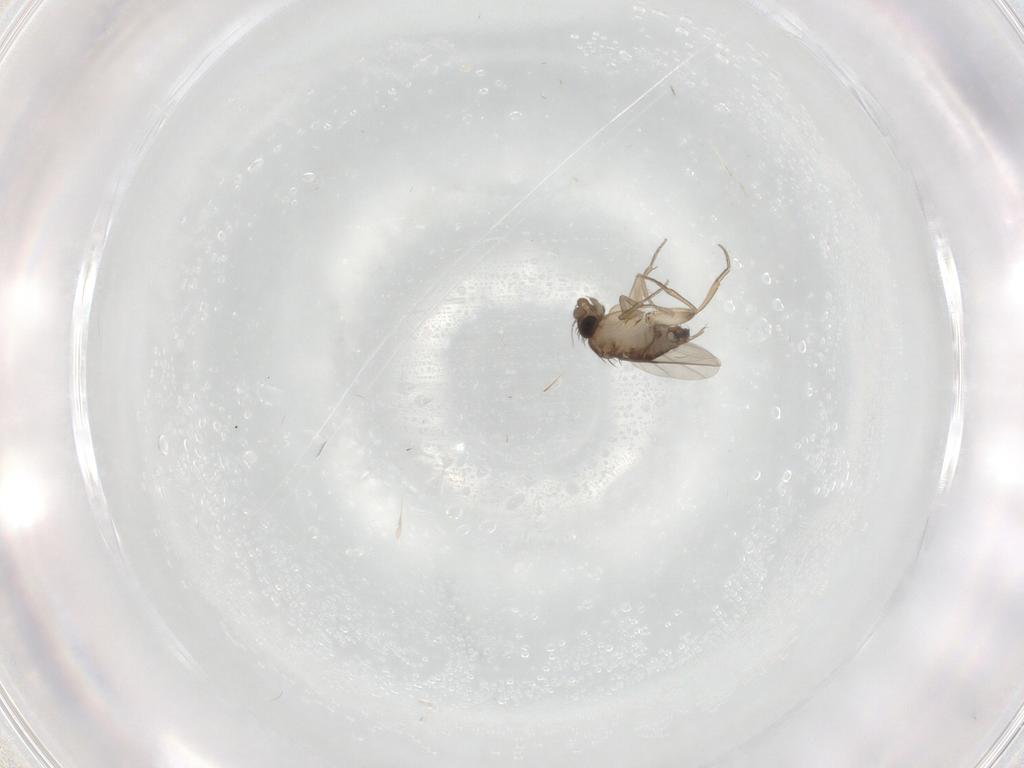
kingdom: Animalia
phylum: Arthropoda
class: Insecta
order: Diptera
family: Phoridae
